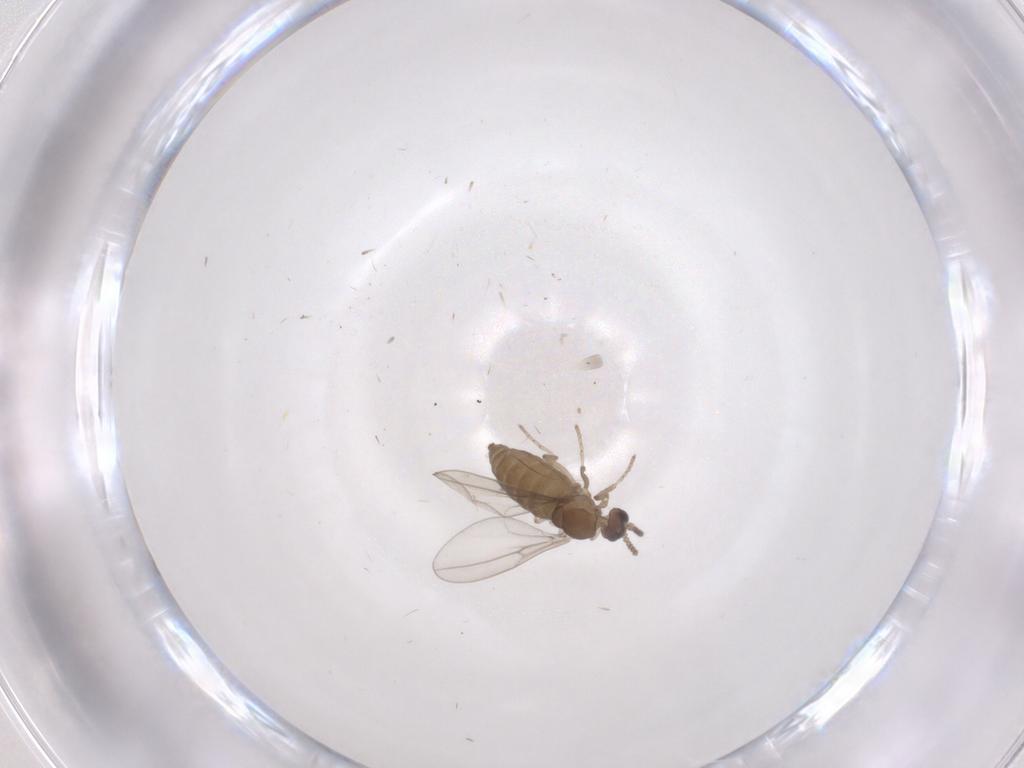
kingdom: Animalia
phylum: Arthropoda
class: Insecta
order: Diptera
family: Cecidomyiidae
